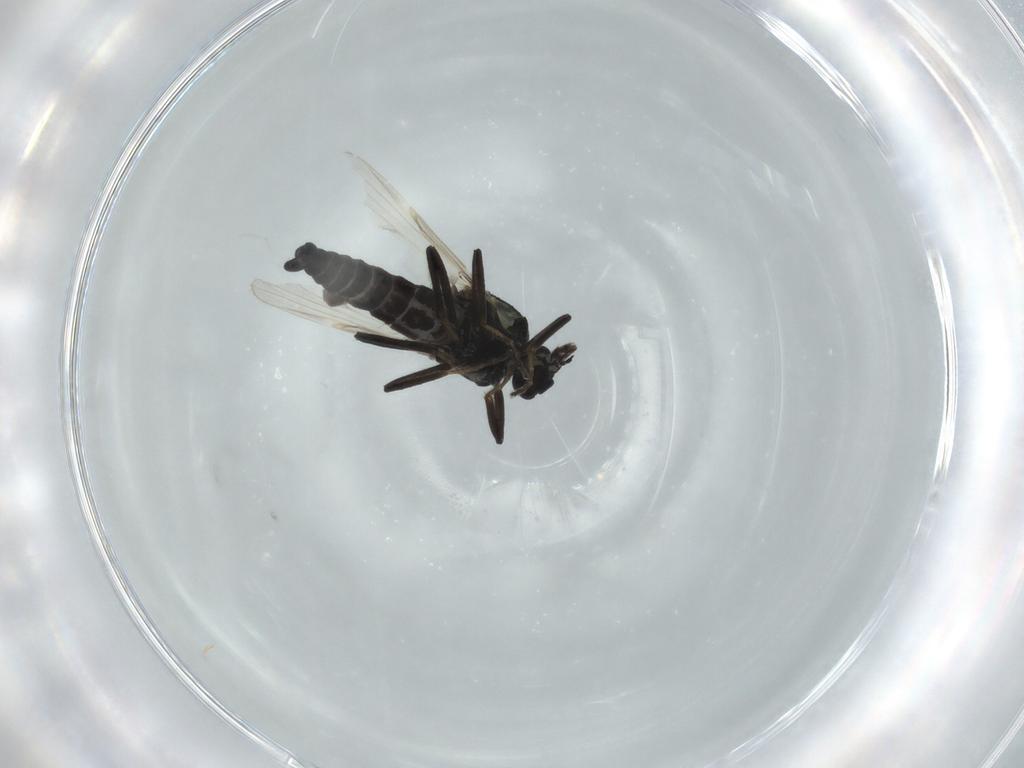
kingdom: Animalia
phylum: Arthropoda
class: Insecta
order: Diptera
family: Ceratopogonidae
